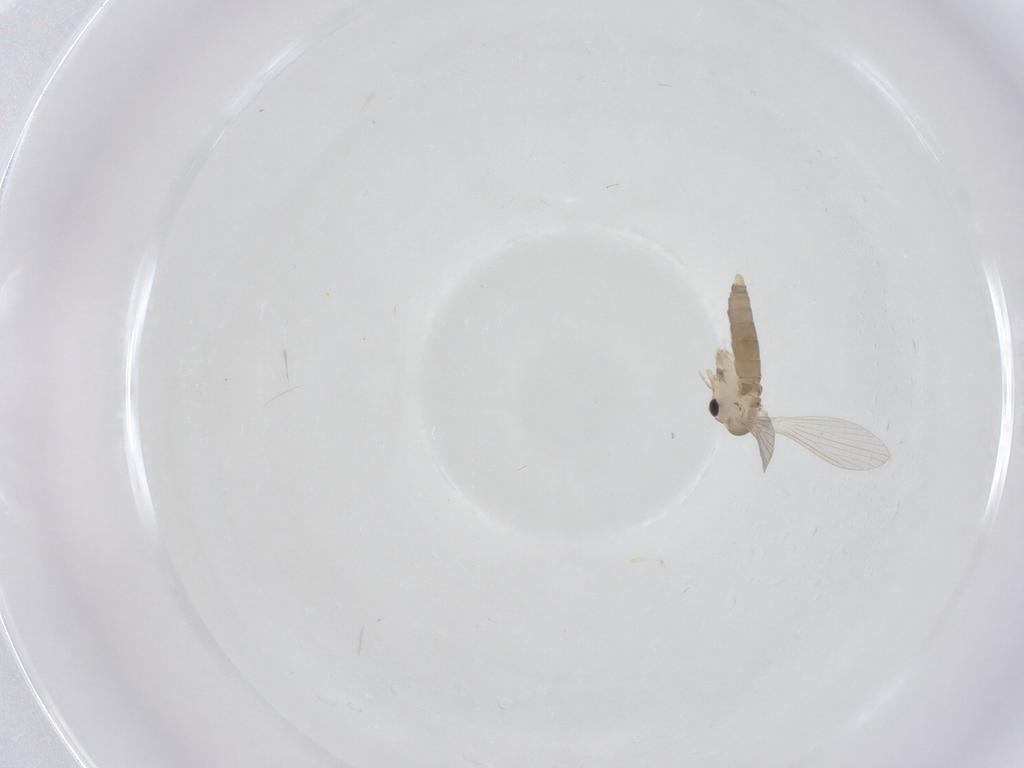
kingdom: Animalia
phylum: Arthropoda
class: Insecta
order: Diptera
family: Psychodidae
